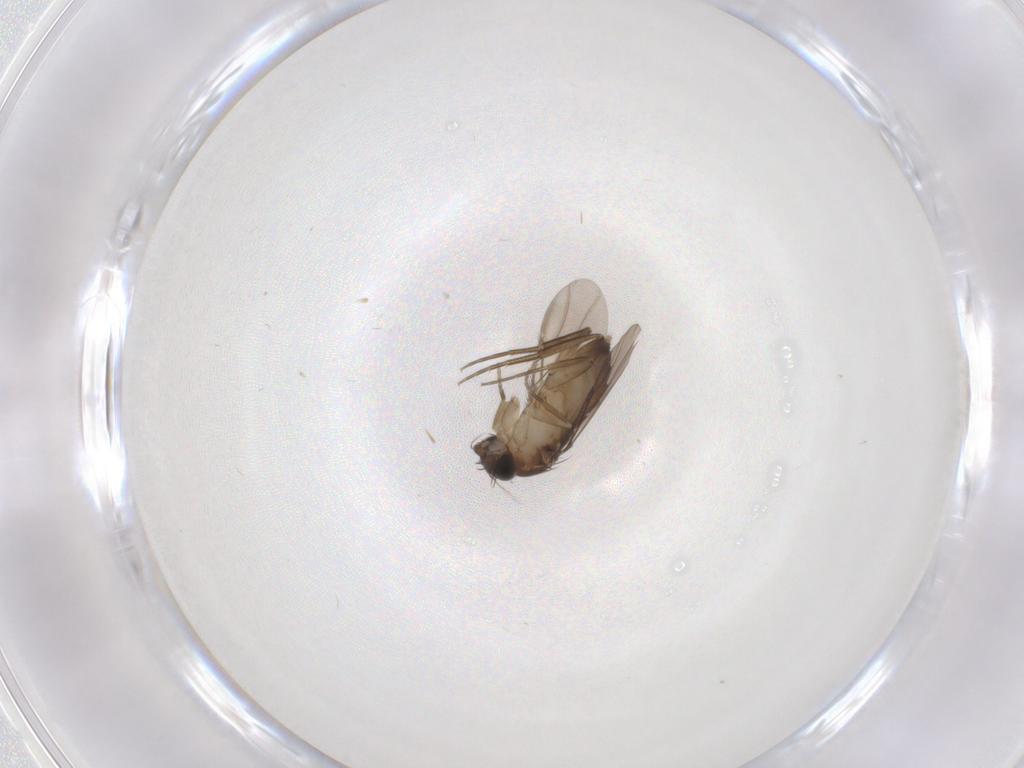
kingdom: Animalia
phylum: Arthropoda
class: Insecta
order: Diptera
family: Phoridae
